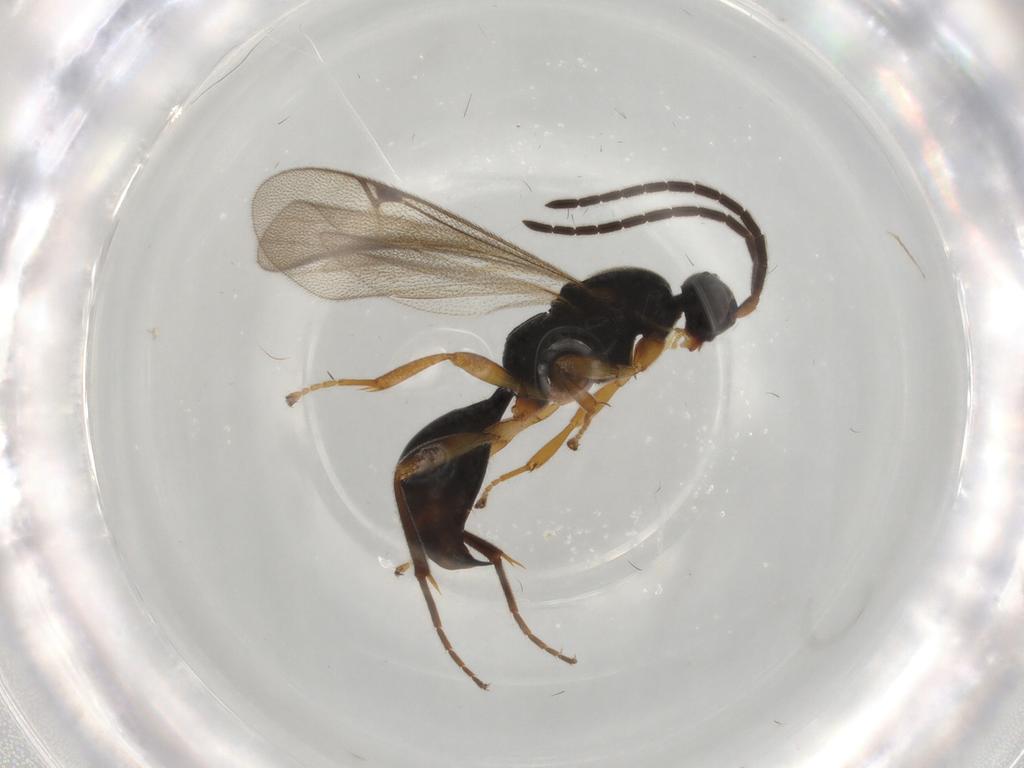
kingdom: Animalia
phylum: Arthropoda
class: Insecta
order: Hymenoptera
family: Proctotrupidae
